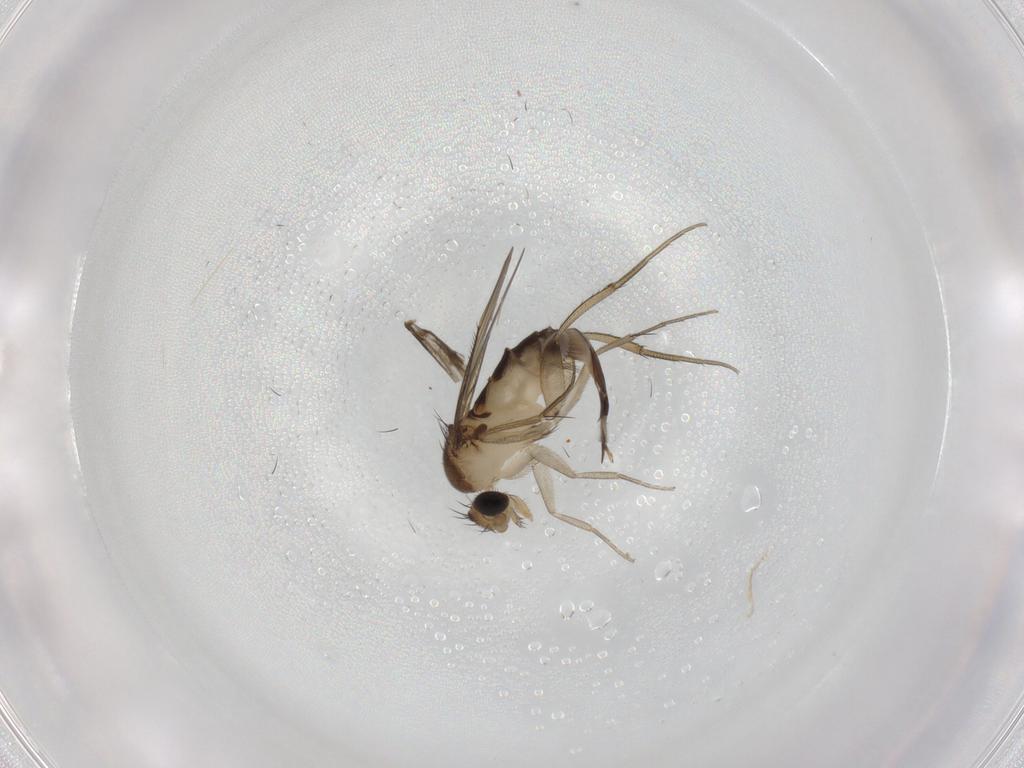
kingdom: Animalia
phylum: Arthropoda
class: Insecta
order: Diptera
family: Phoridae
